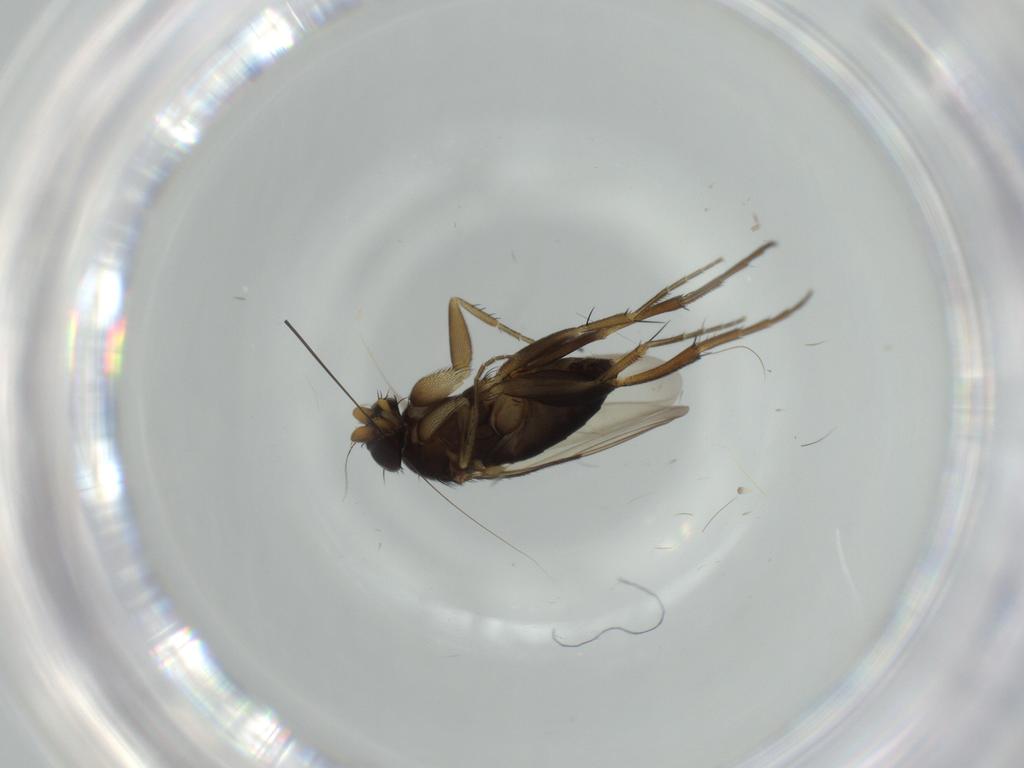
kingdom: Animalia
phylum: Arthropoda
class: Insecta
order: Diptera
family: Phoridae
